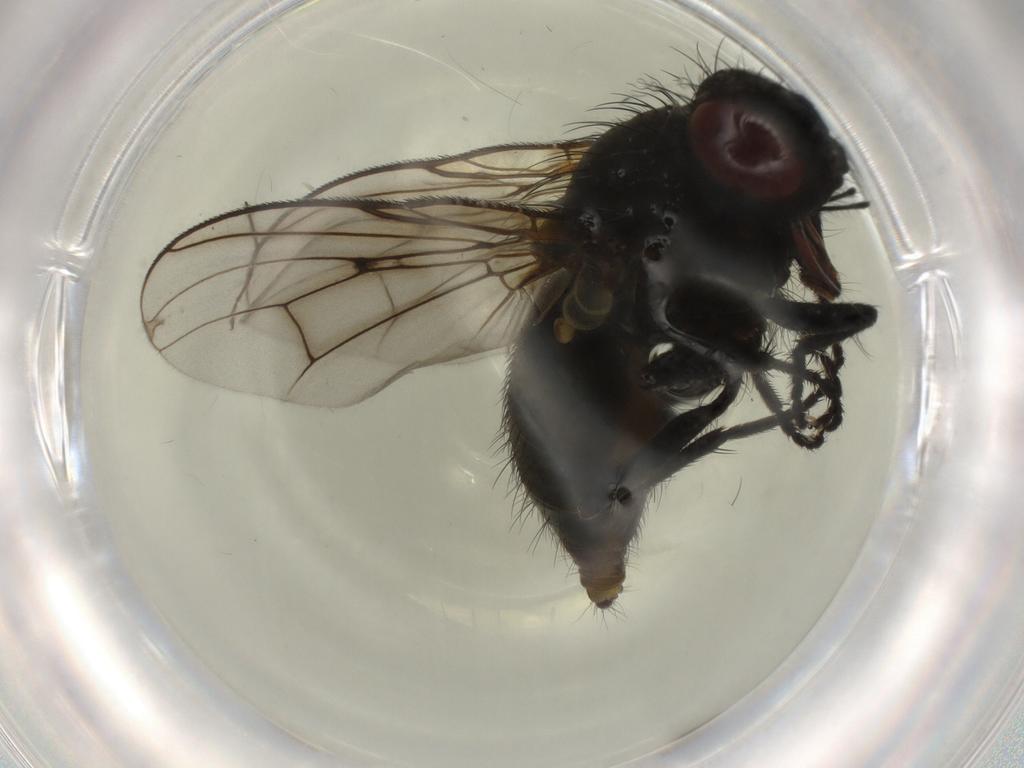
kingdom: Animalia
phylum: Arthropoda
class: Insecta
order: Diptera
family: Muscidae
